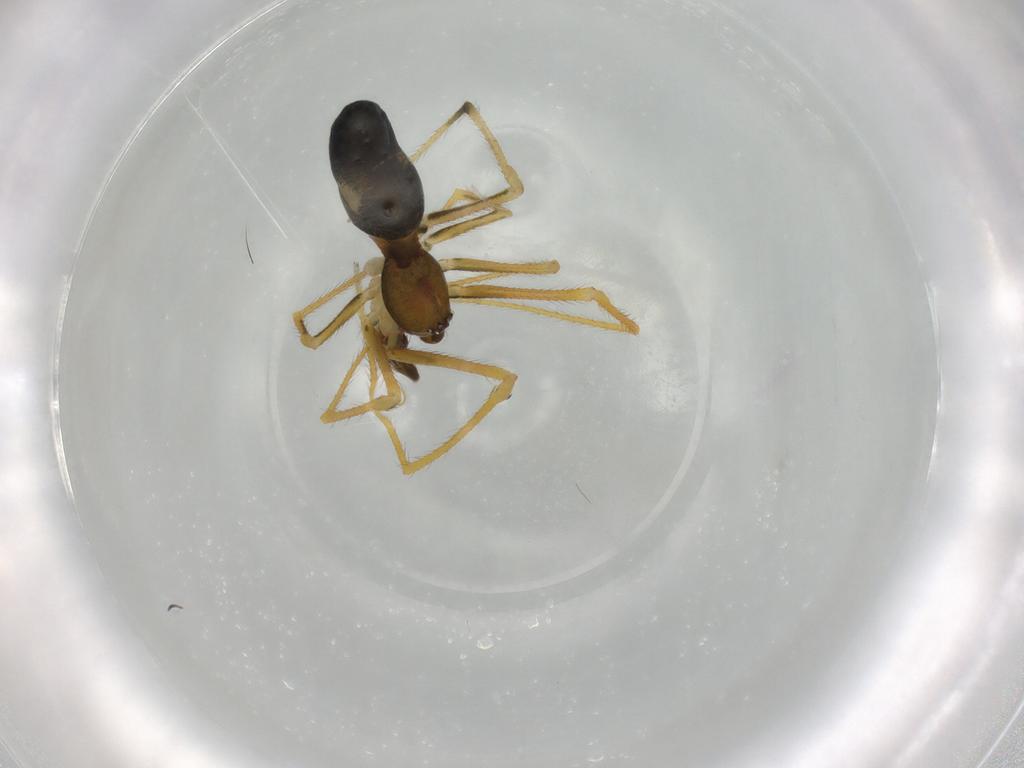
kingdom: Animalia
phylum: Arthropoda
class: Arachnida
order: Araneae
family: Theridiidae
